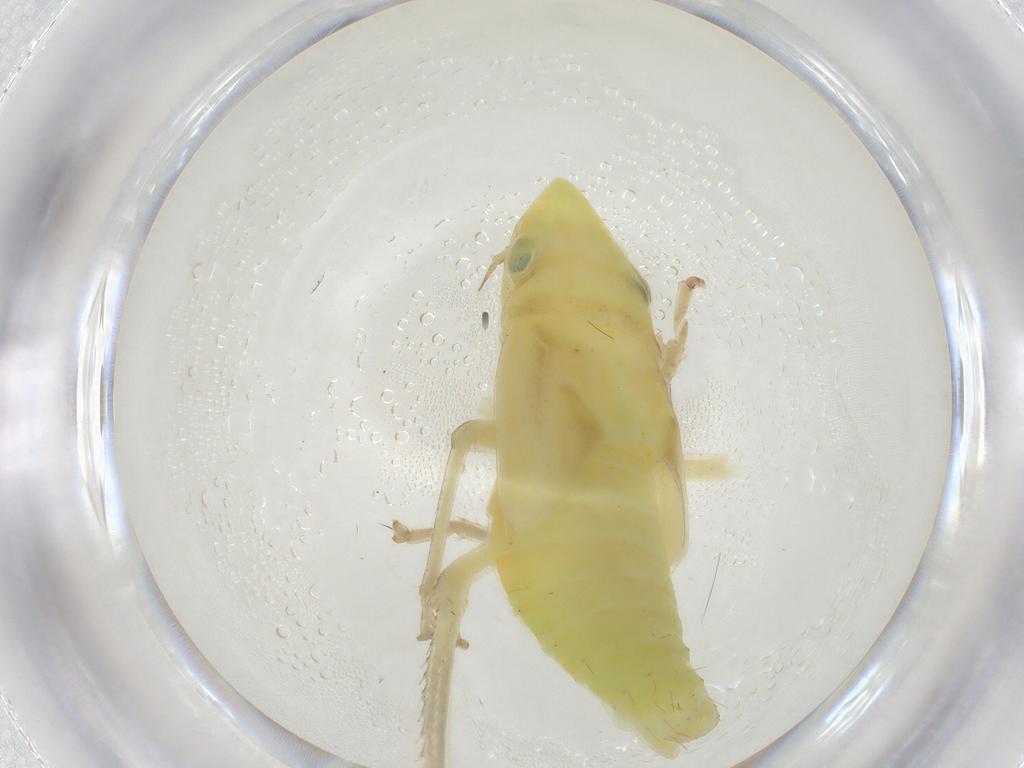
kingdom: Animalia
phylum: Arthropoda
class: Insecta
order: Hemiptera
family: Cicadellidae
